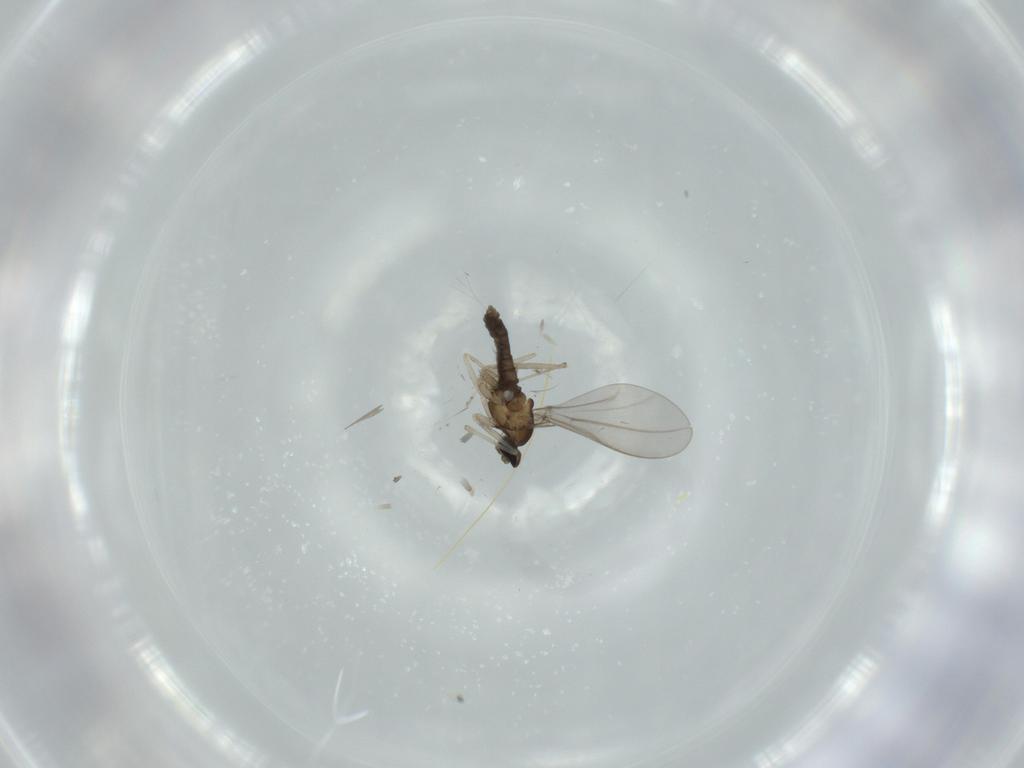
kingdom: Animalia
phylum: Arthropoda
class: Insecta
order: Diptera
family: Cecidomyiidae
